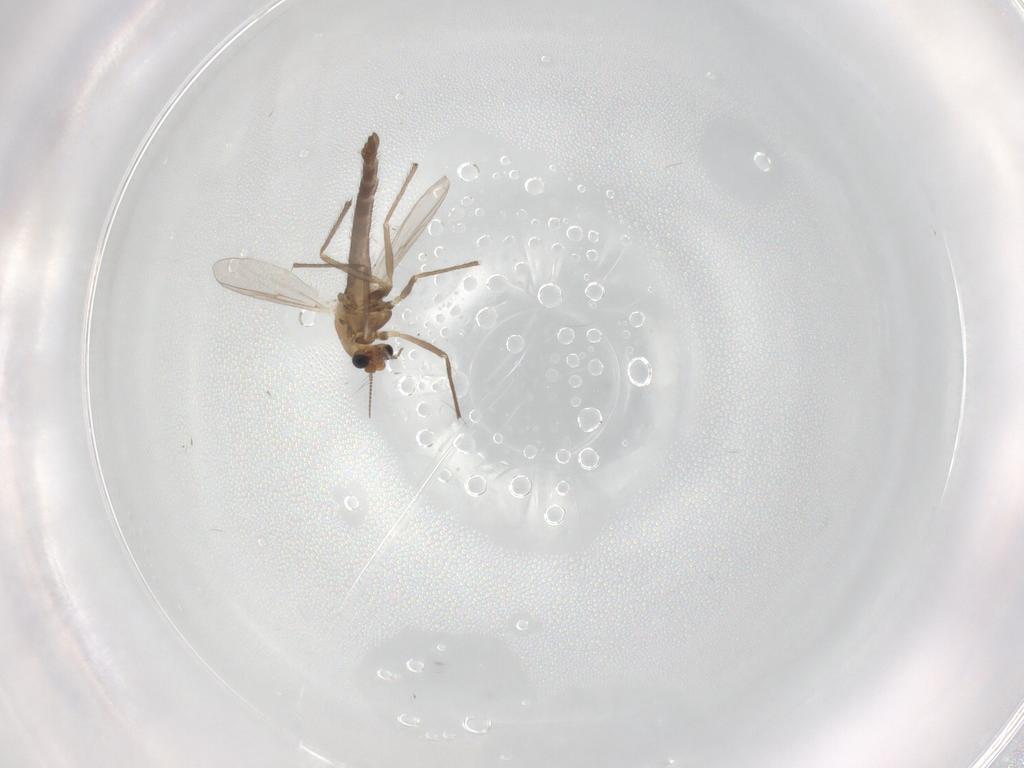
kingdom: Animalia
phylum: Arthropoda
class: Insecta
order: Diptera
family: Chironomidae
